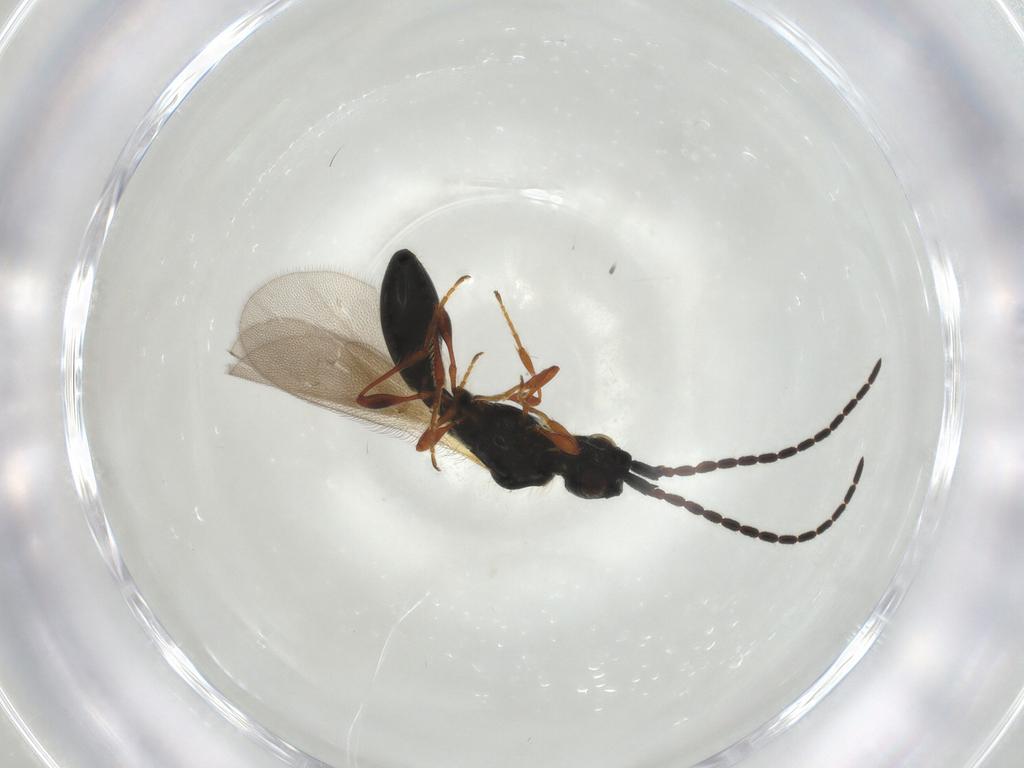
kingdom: Animalia
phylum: Arthropoda
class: Insecta
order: Hymenoptera
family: Diapriidae
